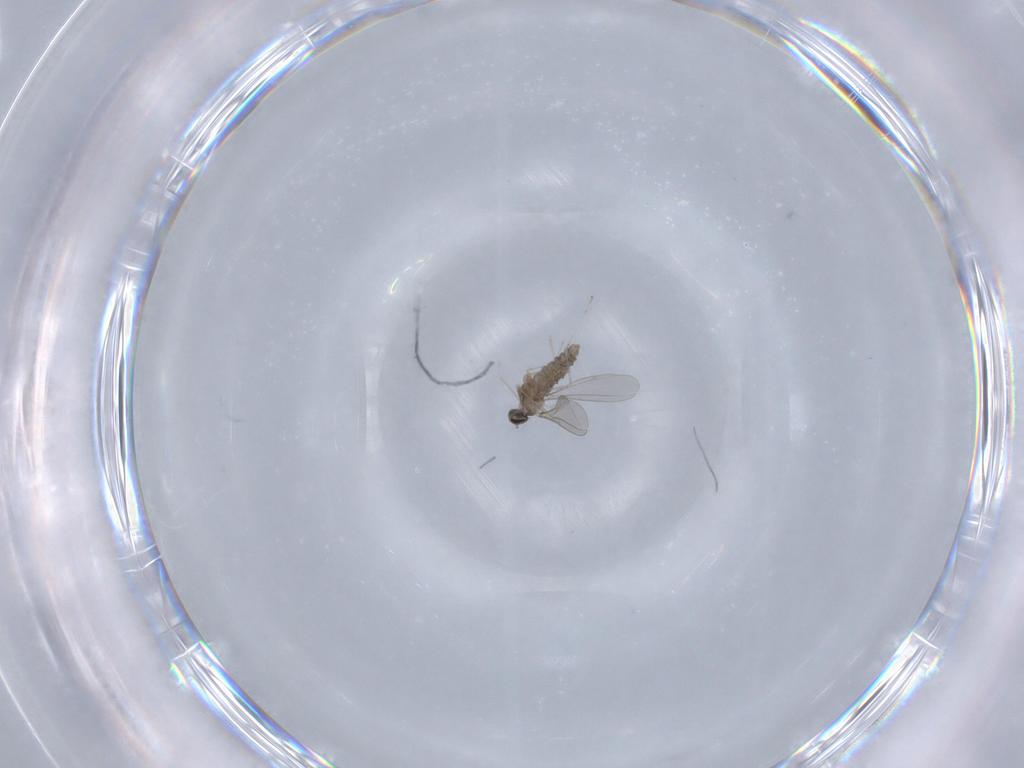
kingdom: Animalia
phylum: Arthropoda
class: Insecta
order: Diptera
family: Cecidomyiidae
